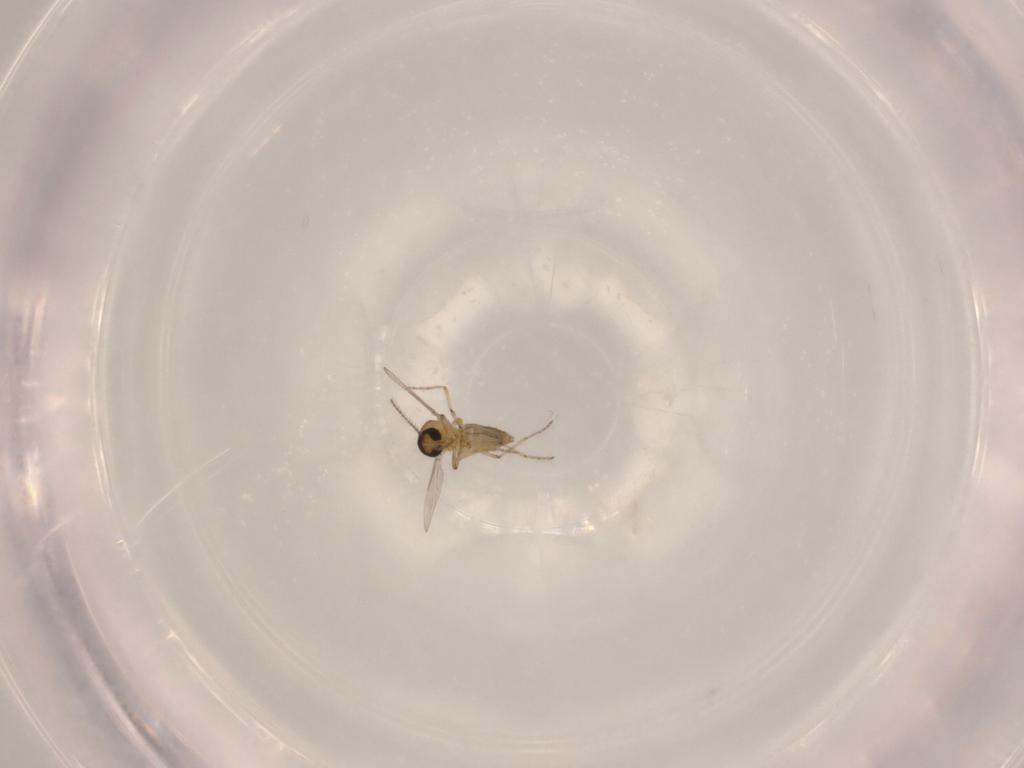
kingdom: Animalia
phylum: Arthropoda
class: Insecta
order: Diptera
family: Ceratopogonidae
